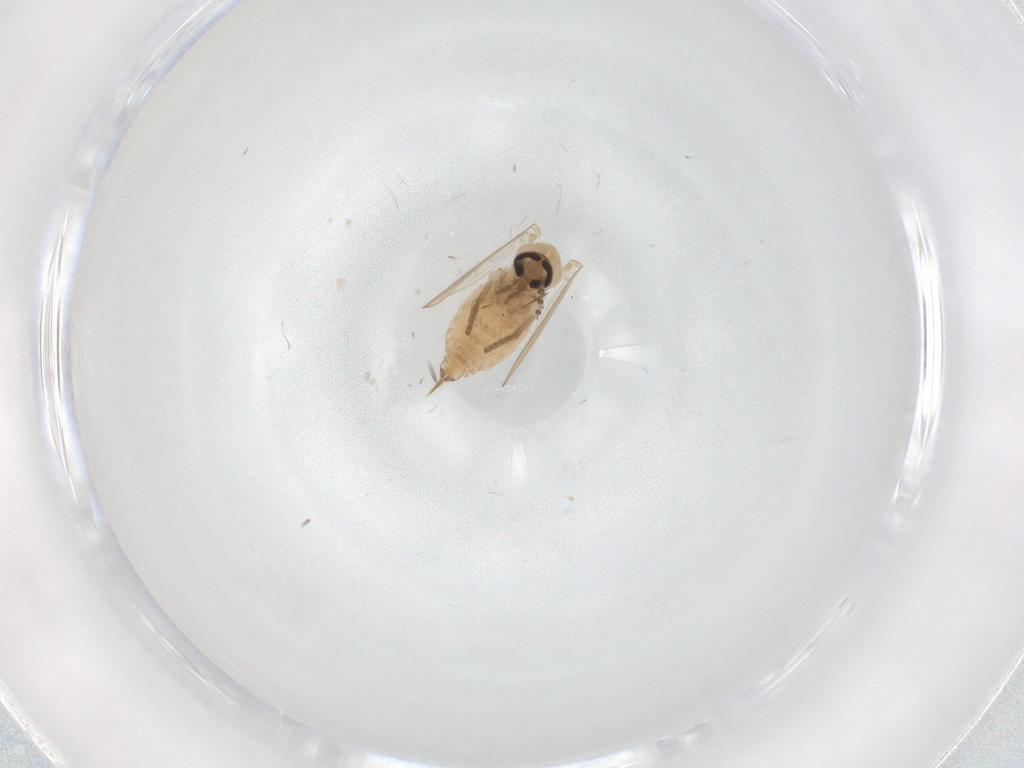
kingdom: Animalia
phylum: Arthropoda
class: Insecta
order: Diptera
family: Psychodidae
